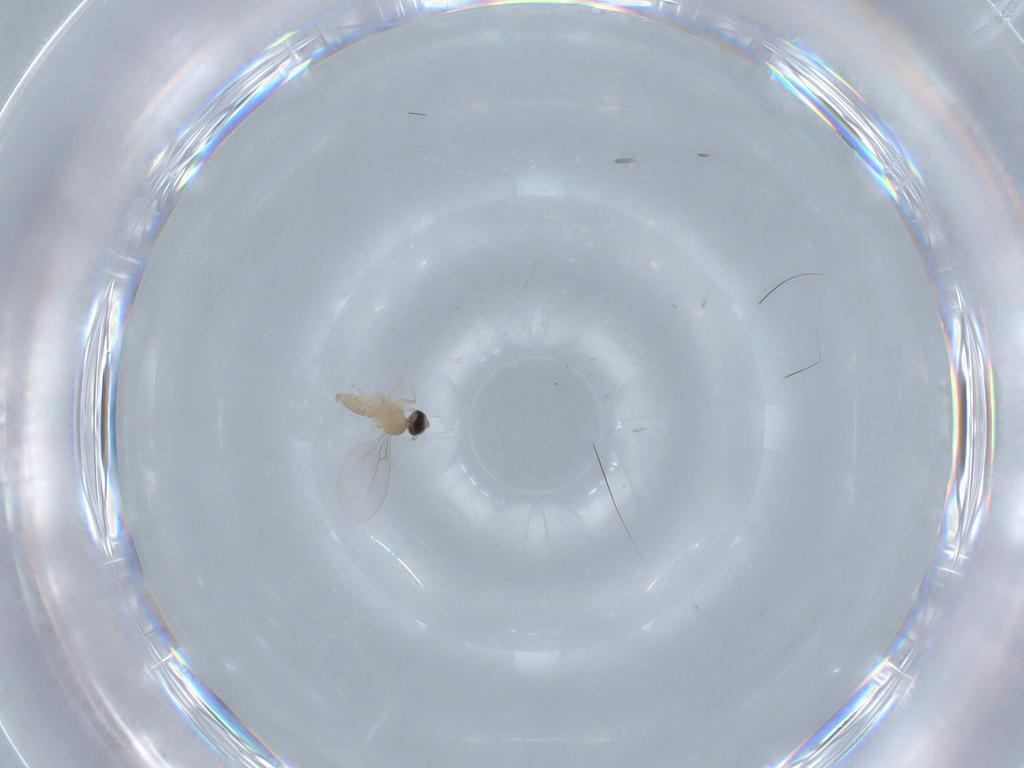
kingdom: Animalia
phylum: Arthropoda
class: Insecta
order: Diptera
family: Cecidomyiidae
